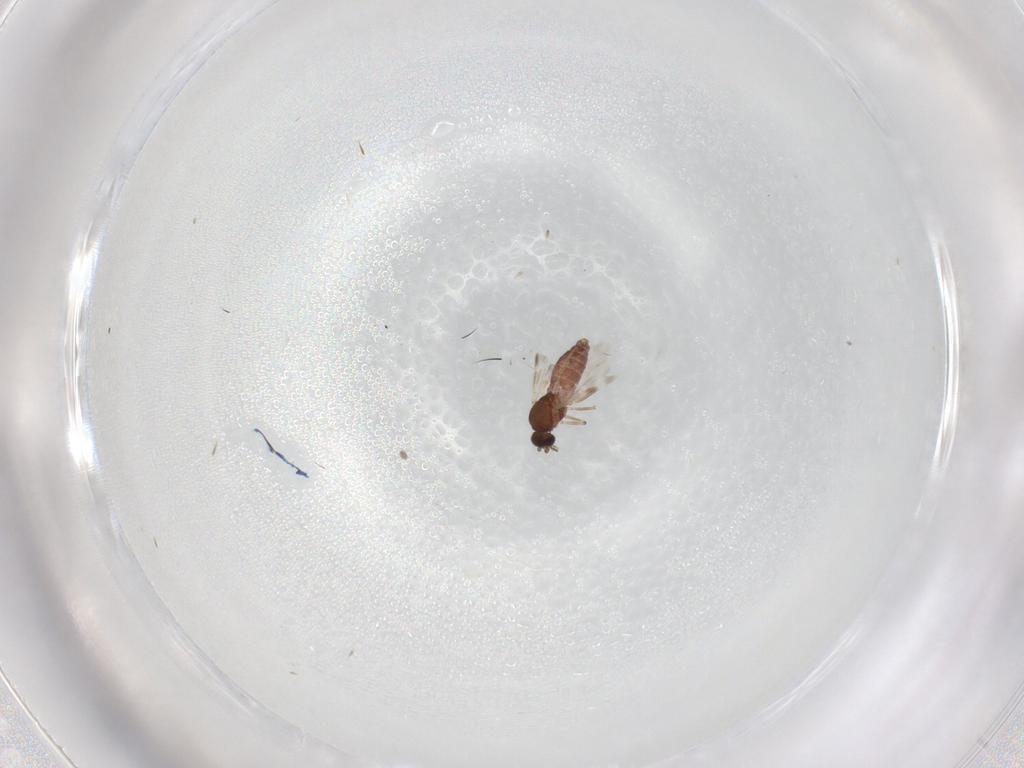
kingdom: Animalia
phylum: Arthropoda
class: Insecta
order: Diptera
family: Ceratopogonidae
